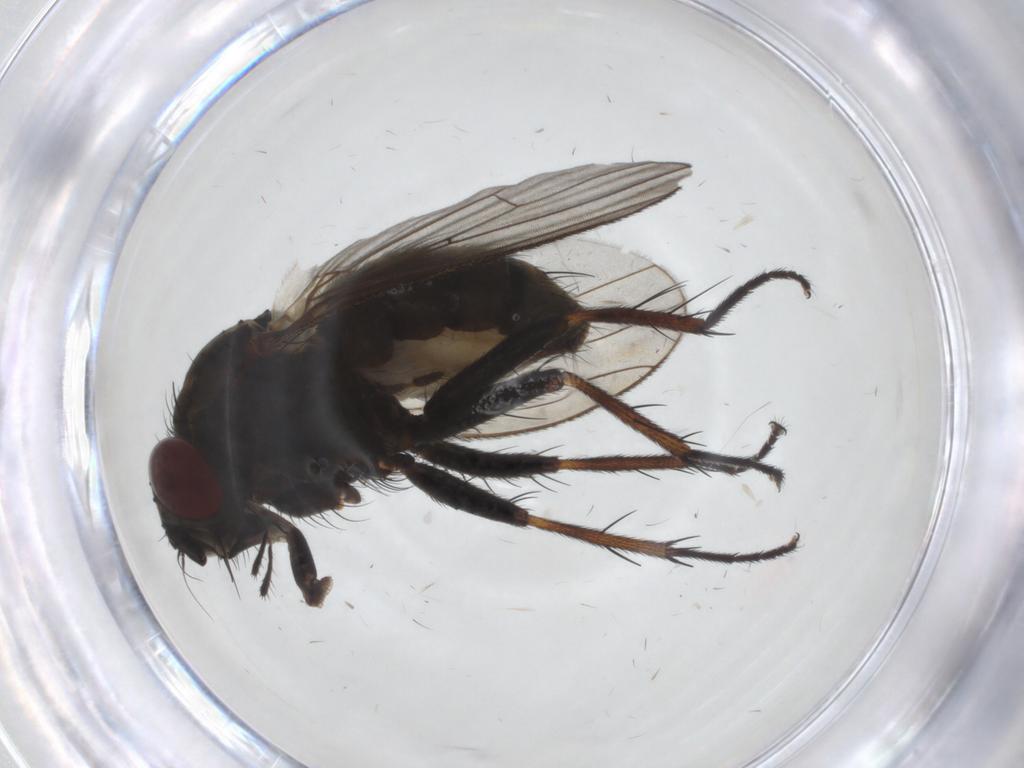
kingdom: Animalia
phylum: Arthropoda
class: Insecta
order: Diptera
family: Muscidae
